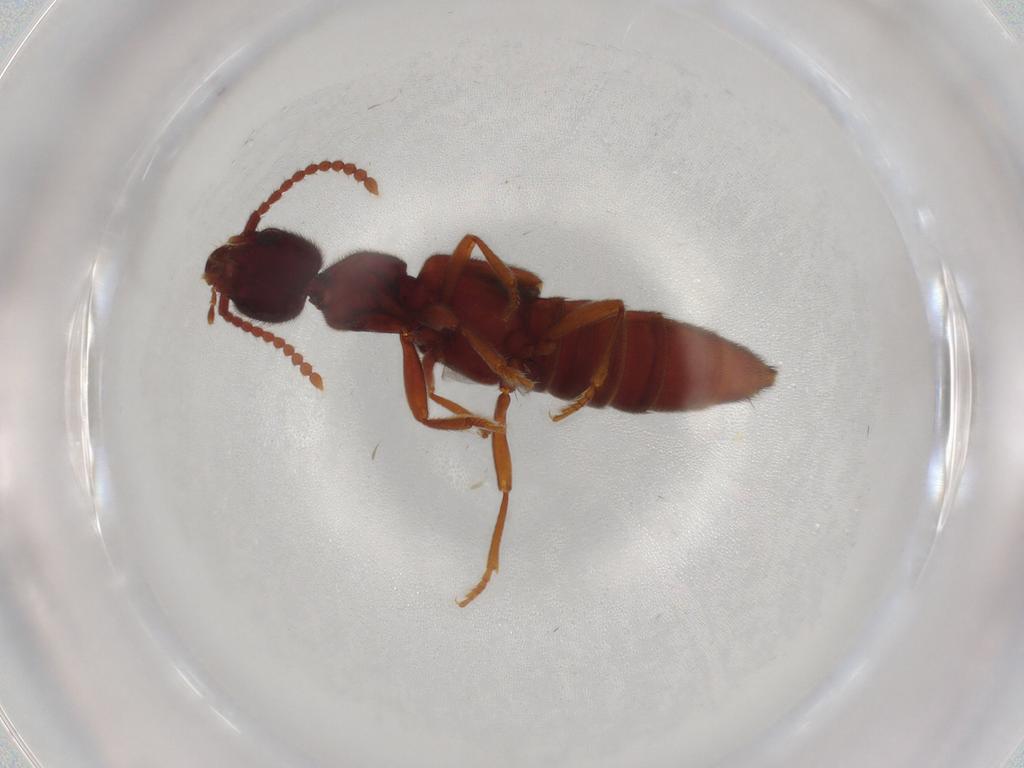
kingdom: Animalia
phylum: Arthropoda
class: Insecta
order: Coleoptera
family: Staphylinidae
